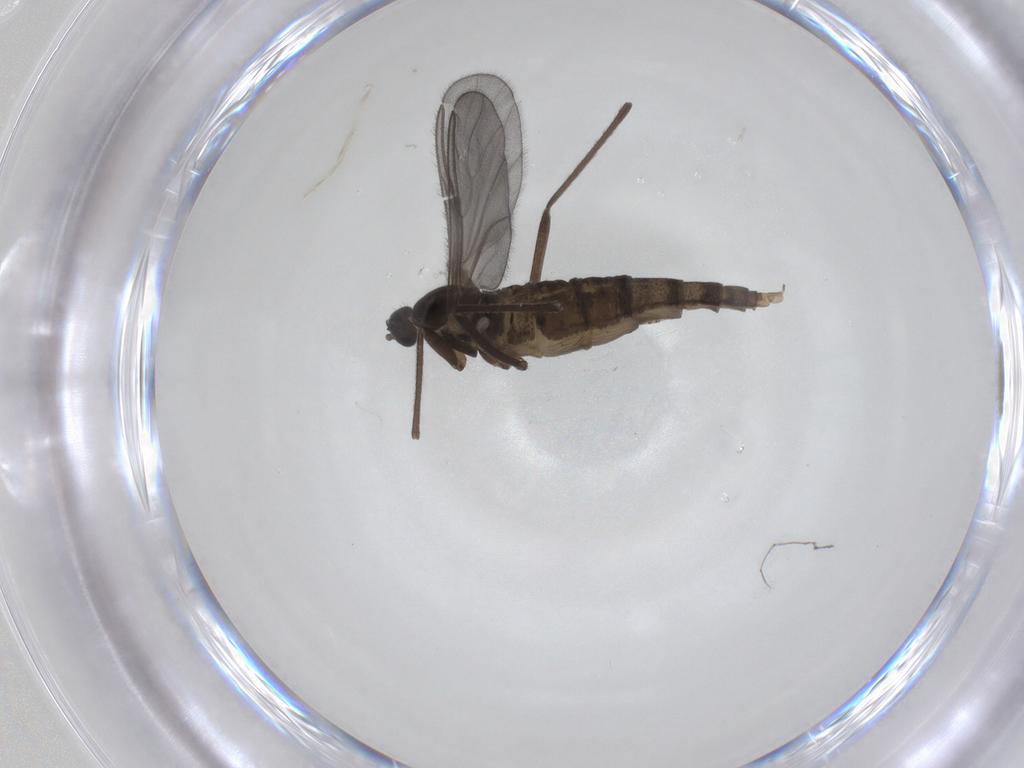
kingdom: Animalia
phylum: Arthropoda
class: Insecta
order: Diptera
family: Cecidomyiidae
